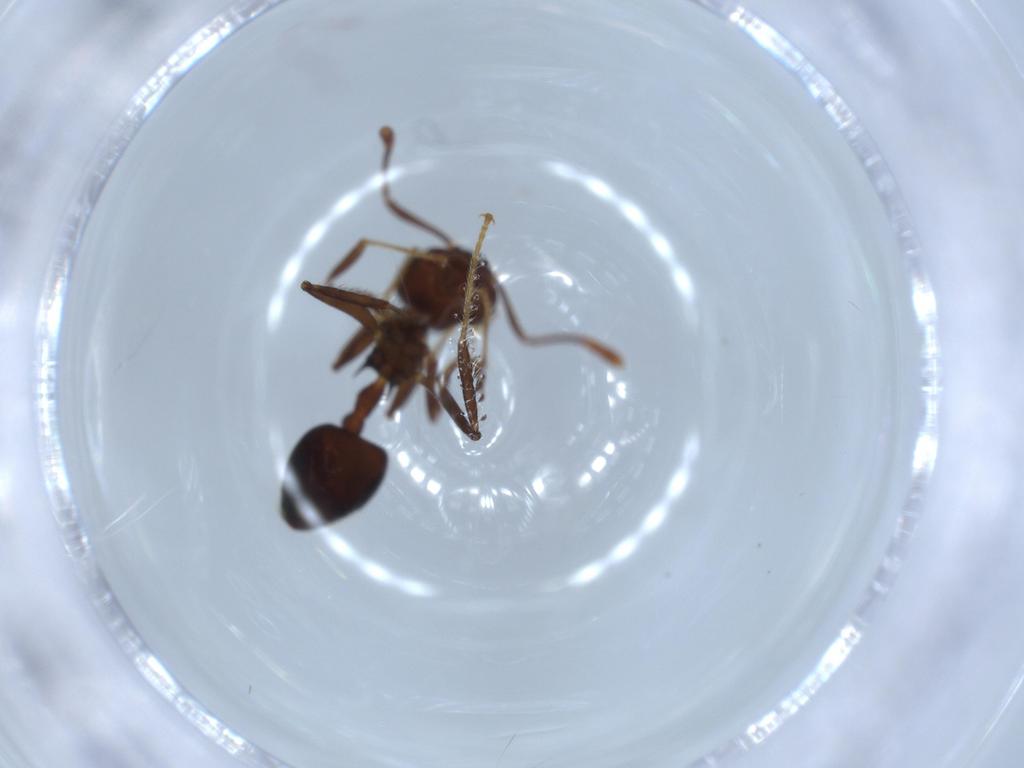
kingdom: Animalia
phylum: Arthropoda
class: Insecta
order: Hymenoptera
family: Formicidae
